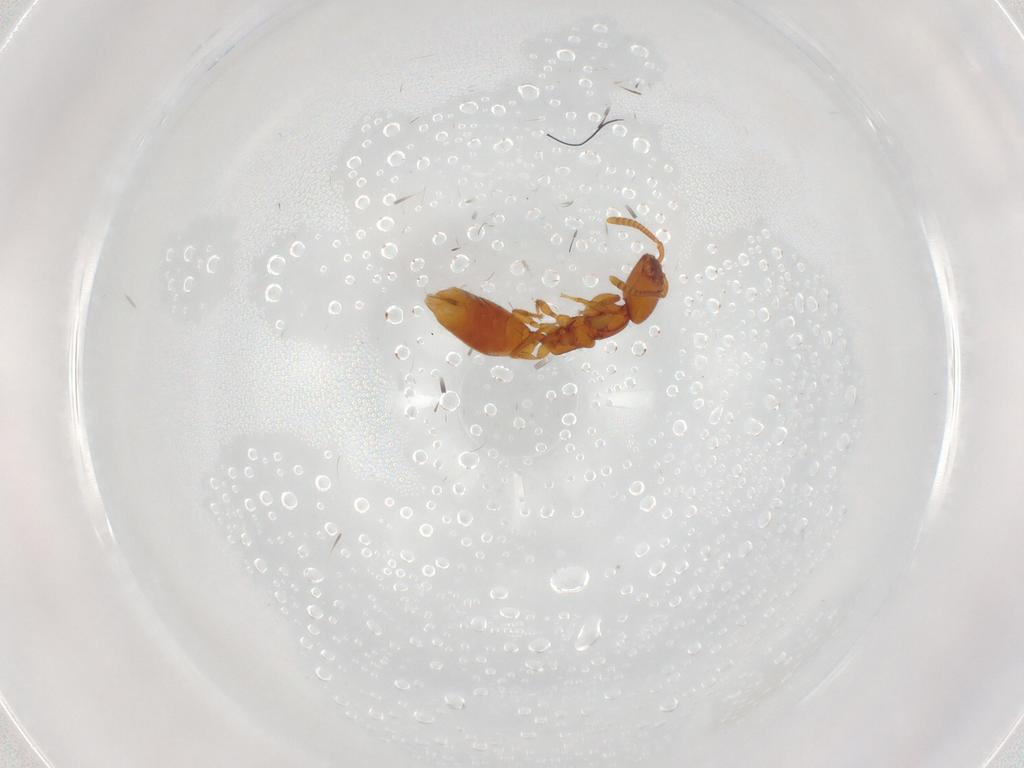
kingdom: Animalia
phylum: Arthropoda
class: Insecta
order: Hymenoptera
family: Bethylidae
